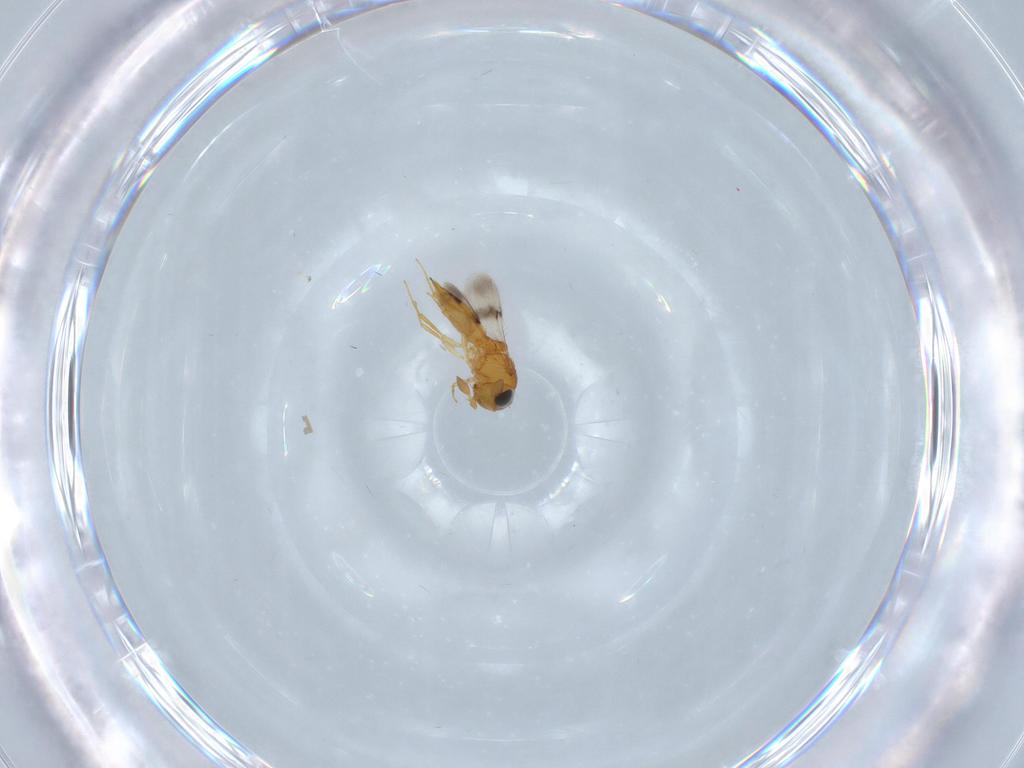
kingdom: Animalia
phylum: Arthropoda
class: Insecta
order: Hymenoptera
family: Scelionidae
